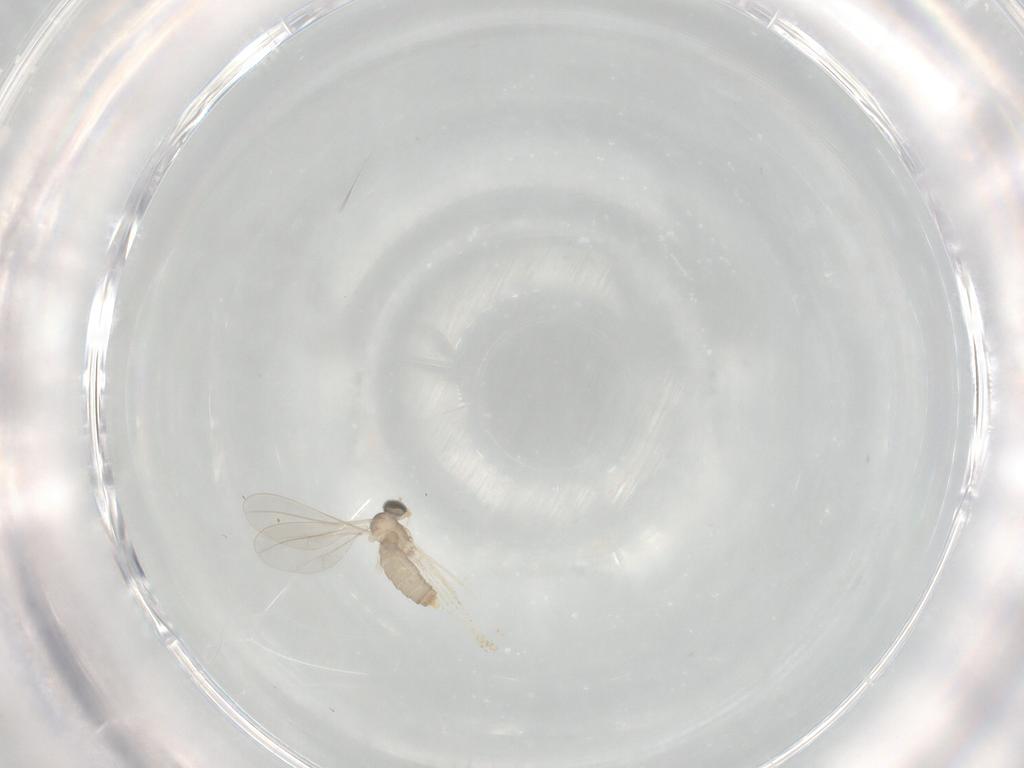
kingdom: Animalia
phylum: Arthropoda
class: Insecta
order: Diptera
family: Cecidomyiidae
